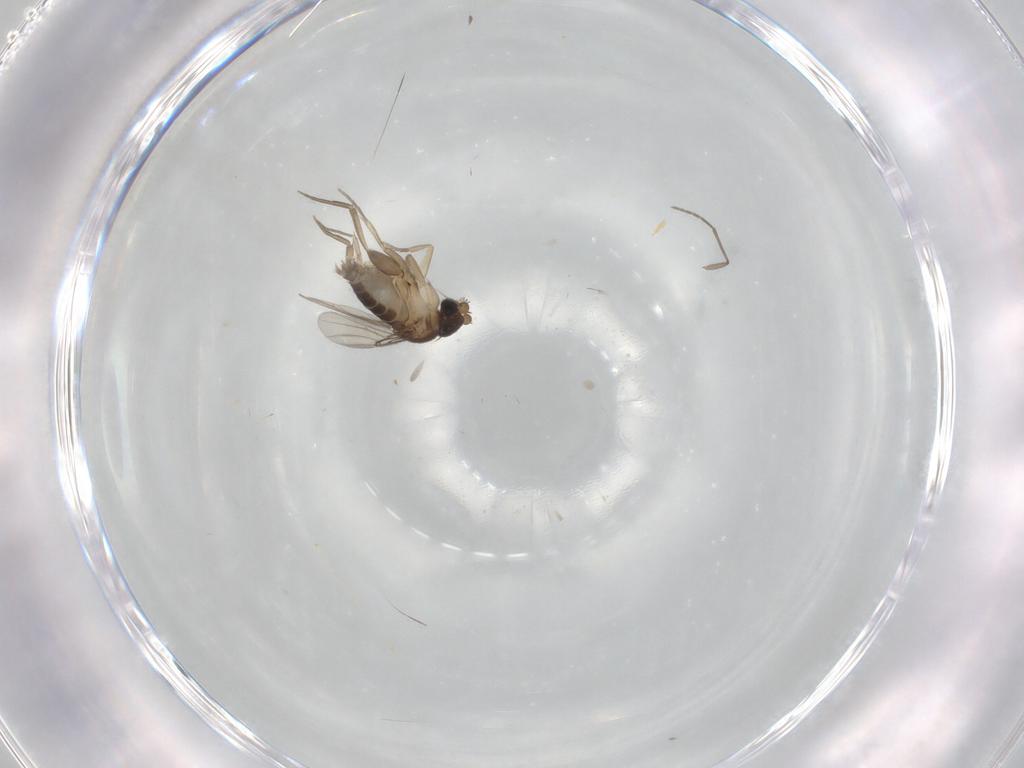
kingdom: Animalia
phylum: Arthropoda
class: Insecta
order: Diptera
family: Phoridae
